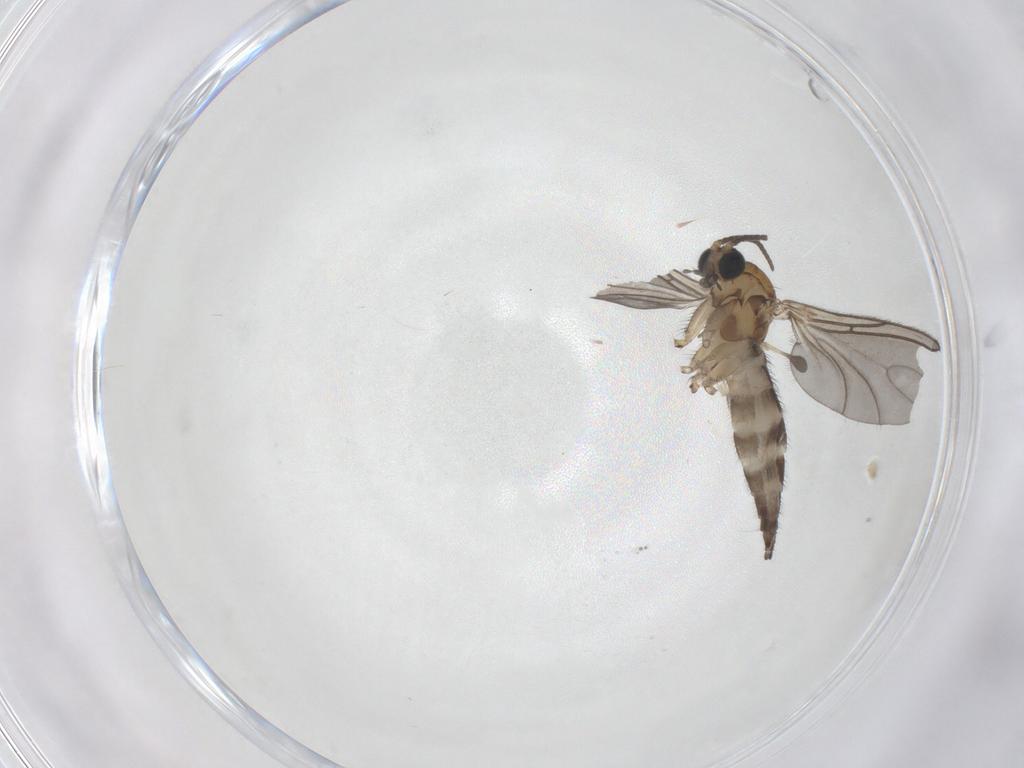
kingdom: Animalia
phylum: Arthropoda
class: Insecta
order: Diptera
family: Sciaridae
